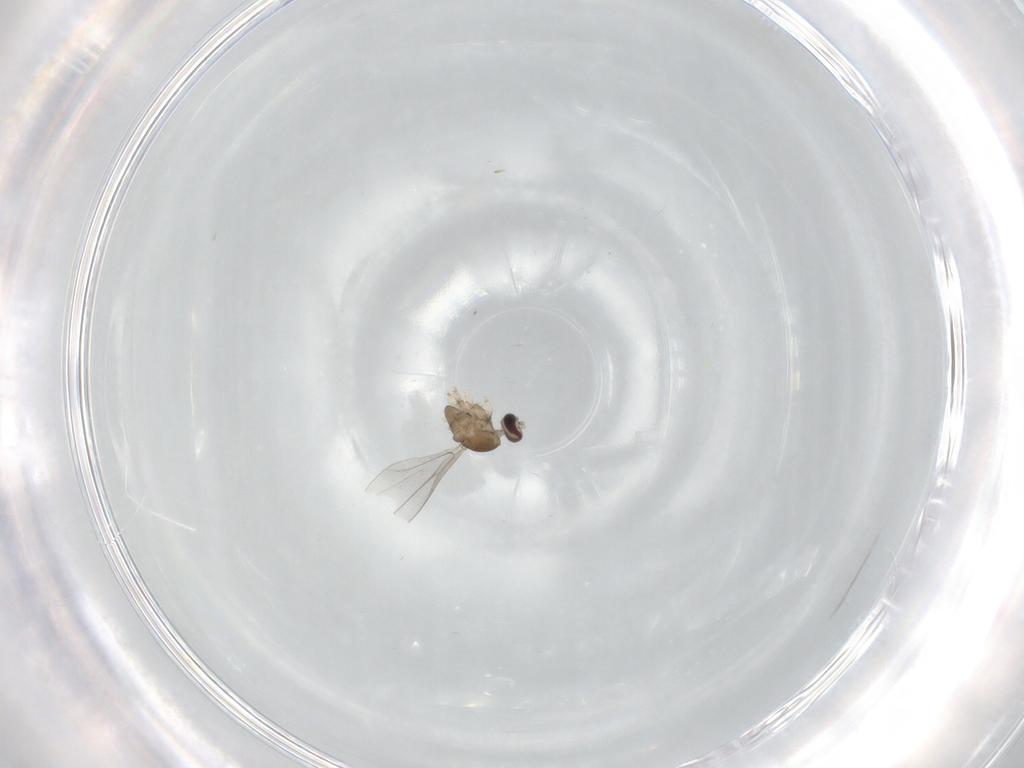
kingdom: Animalia
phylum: Arthropoda
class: Insecta
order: Diptera
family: Cecidomyiidae
